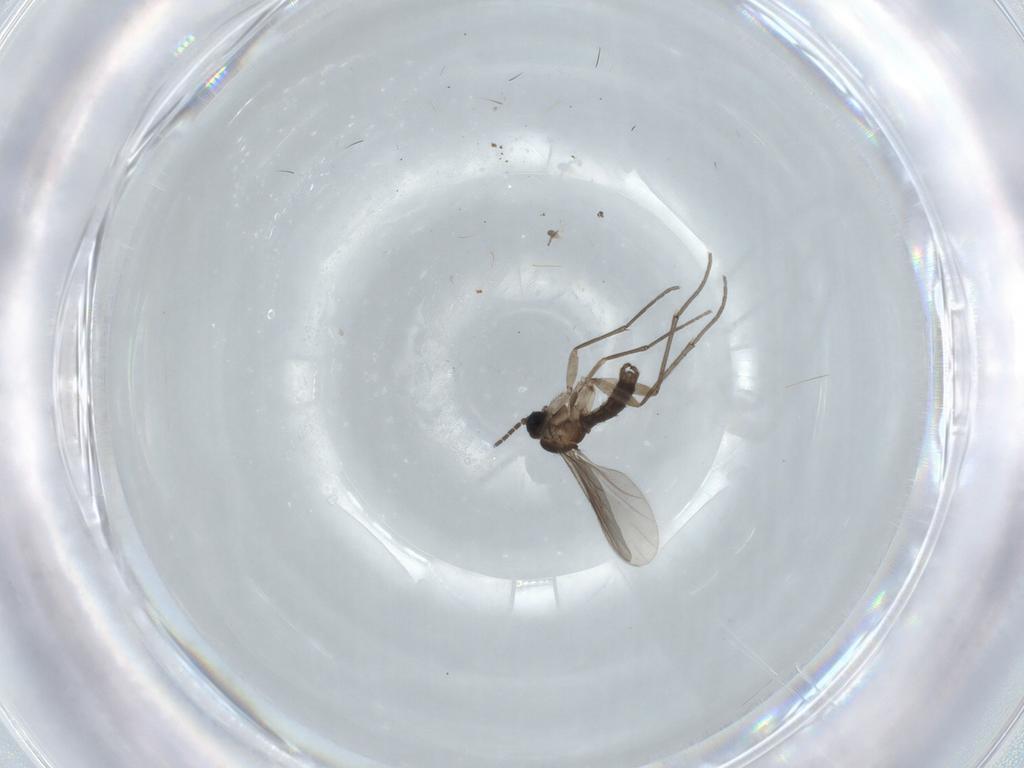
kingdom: Animalia
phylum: Arthropoda
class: Insecta
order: Diptera
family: Sciaridae
